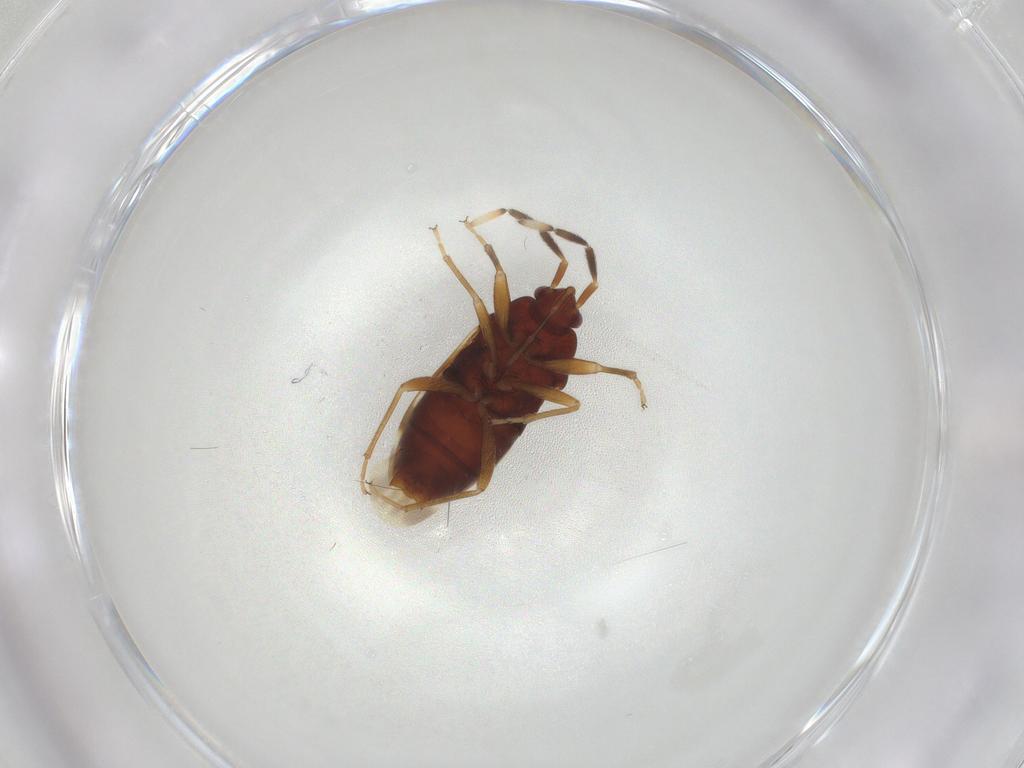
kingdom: Animalia
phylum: Arthropoda
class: Insecta
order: Hemiptera
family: Rhyparochromidae
